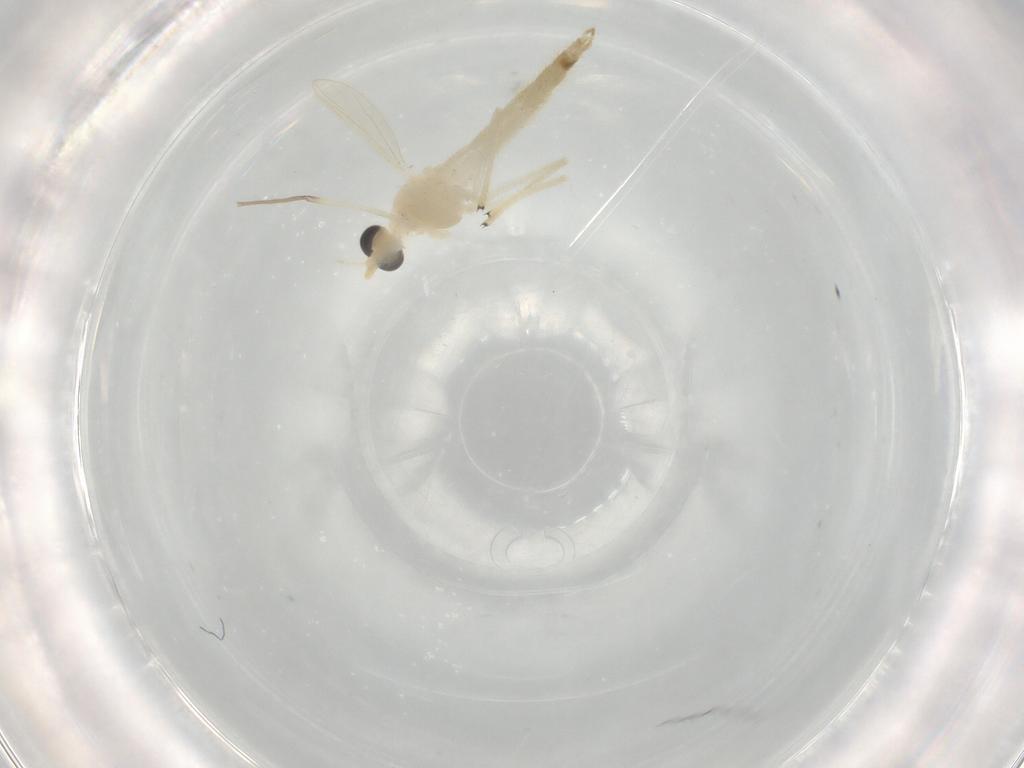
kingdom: Animalia
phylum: Arthropoda
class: Insecta
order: Diptera
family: Chironomidae
